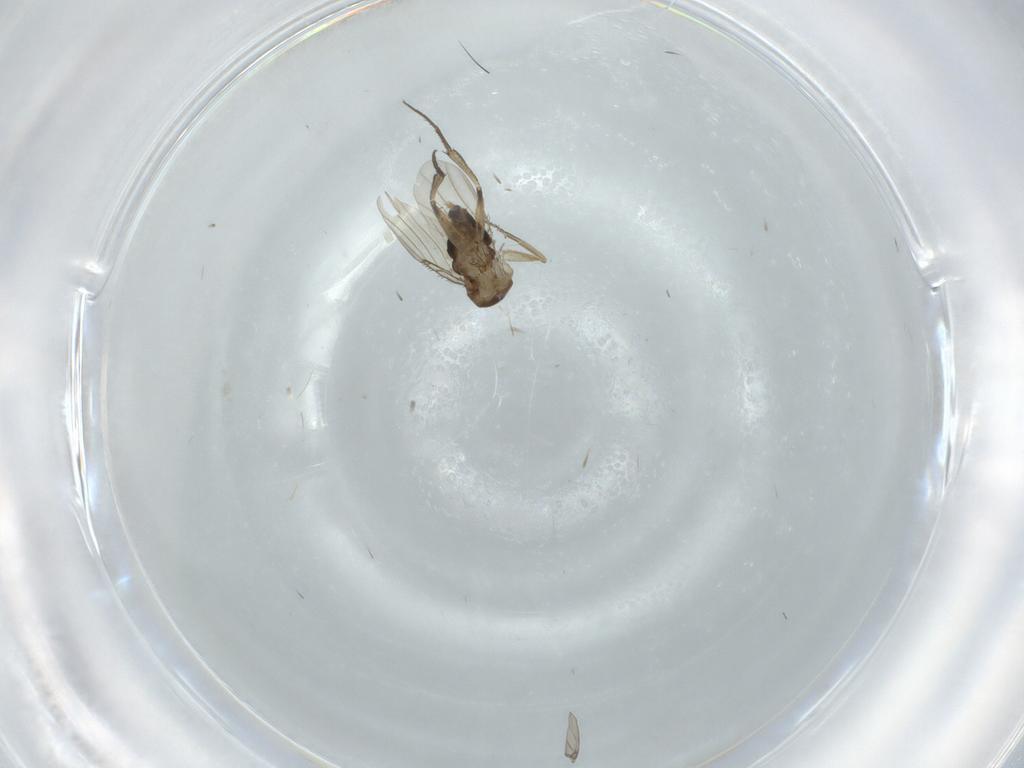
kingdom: Animalia
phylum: Arthropoda
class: Insecta
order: Diptera
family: Phoridae
